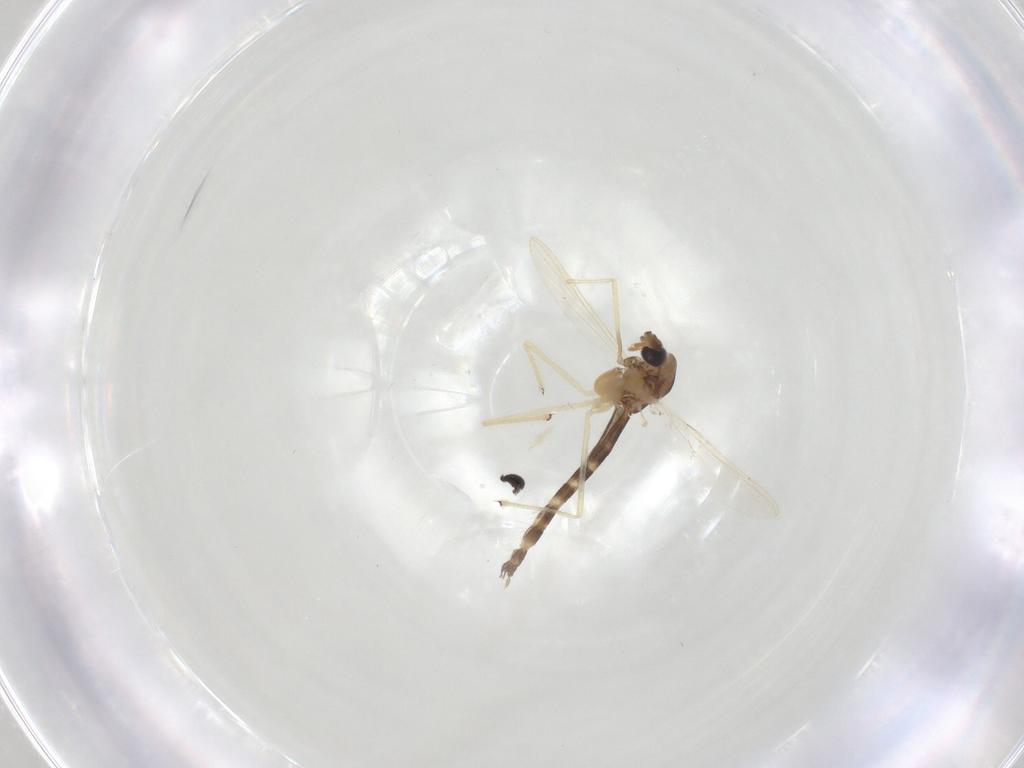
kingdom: Animalia
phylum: Arthropoda
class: Insecta
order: Diptera
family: Chironomidae
